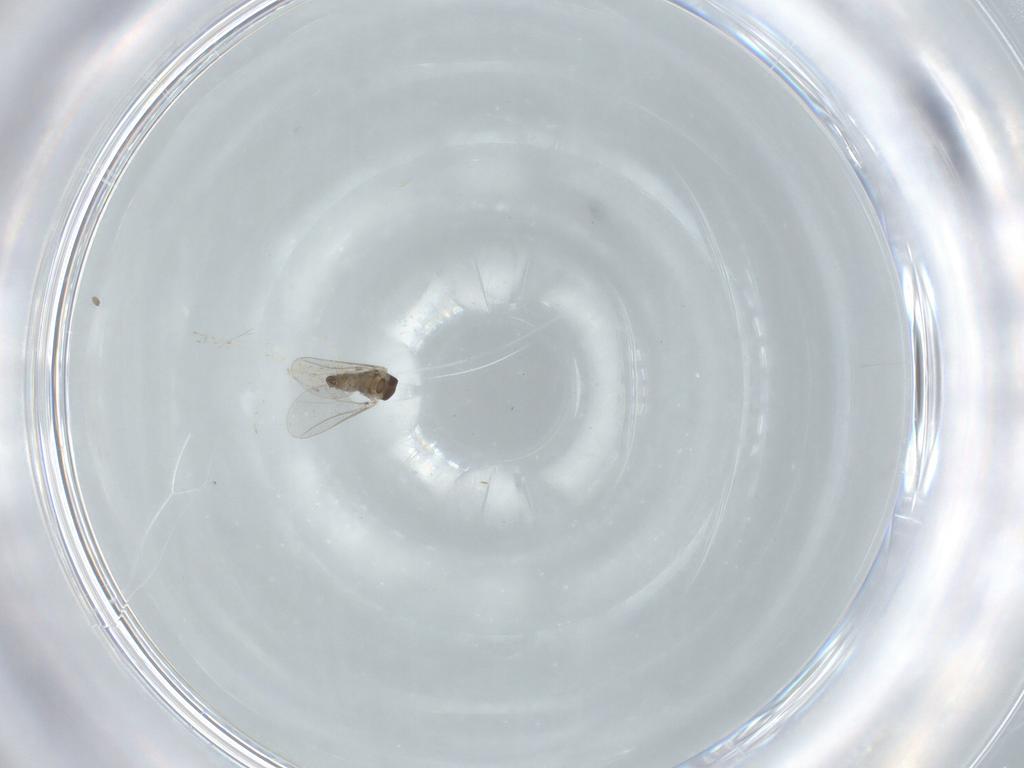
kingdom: Animalia
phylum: Arthropoda
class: Insecta
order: Diptera
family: Cecidomyiidae
